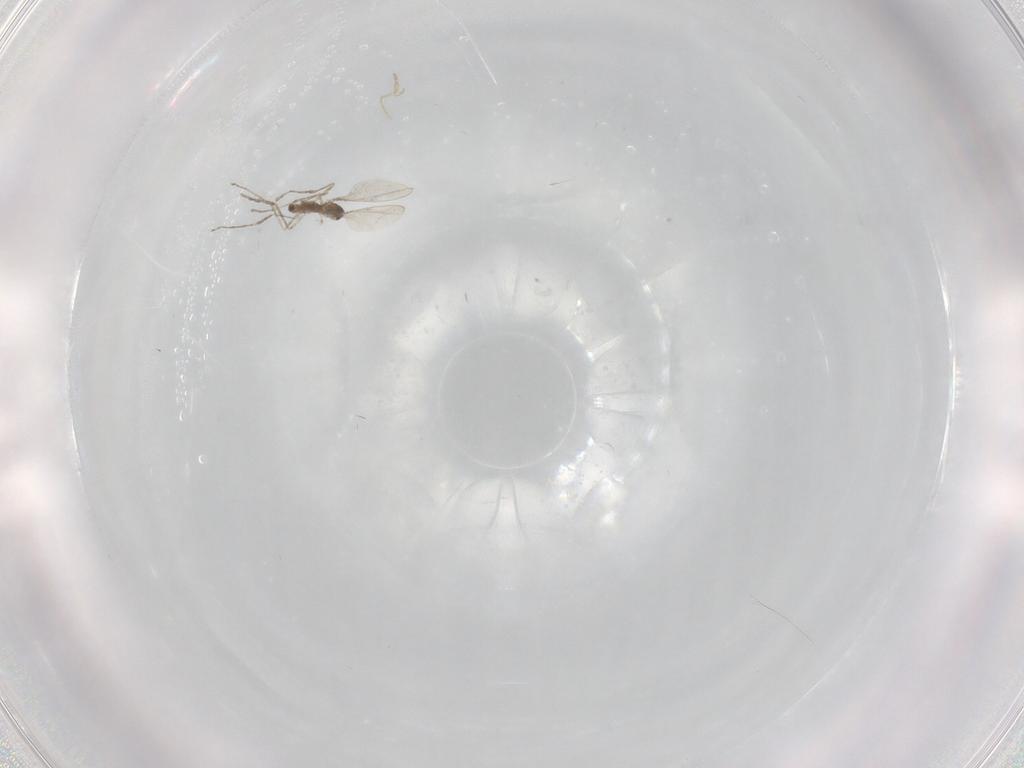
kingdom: Animalia
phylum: Arthropoda
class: Insecta
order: Diptera
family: Cecidomyiidae
